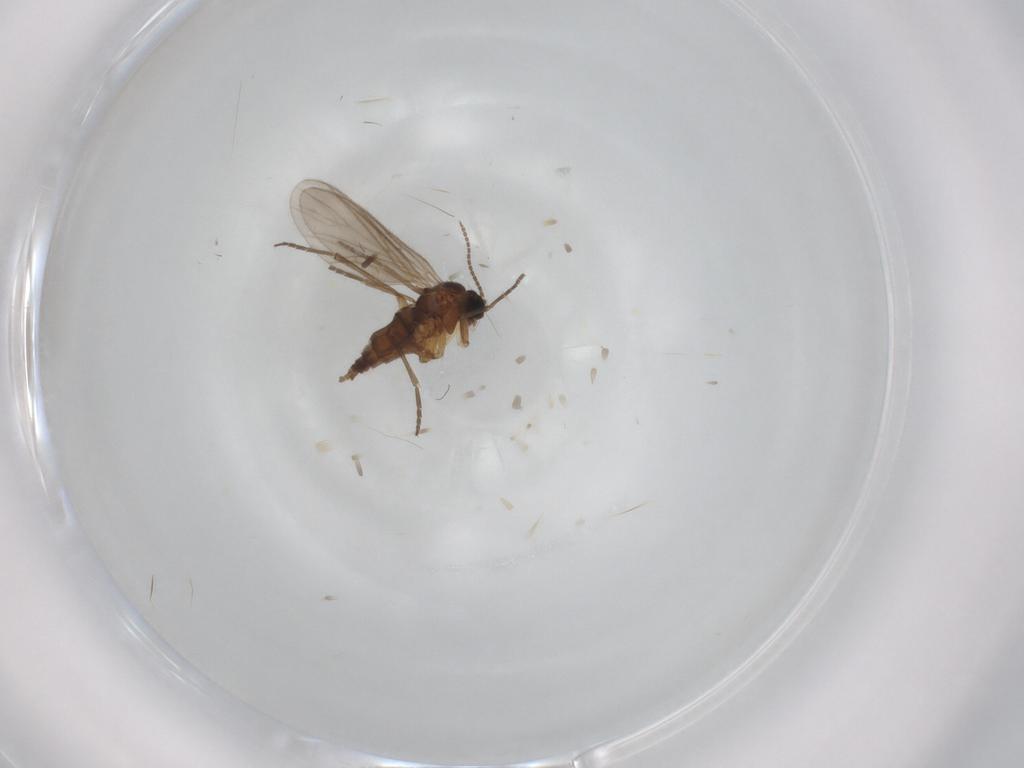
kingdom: Animalia
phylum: Arthropoda
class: Insecta
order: Diptera
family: Sciaridae
